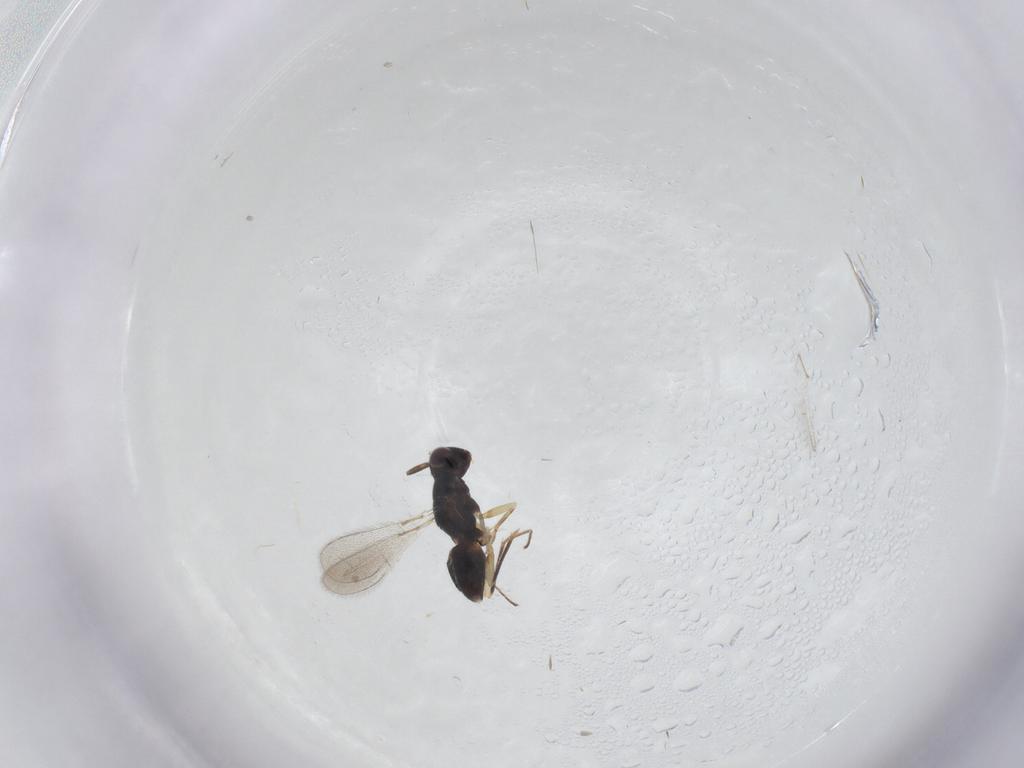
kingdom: Animalia
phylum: Arthropoda
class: Insecta
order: Hymenoptera
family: Mymaridae
